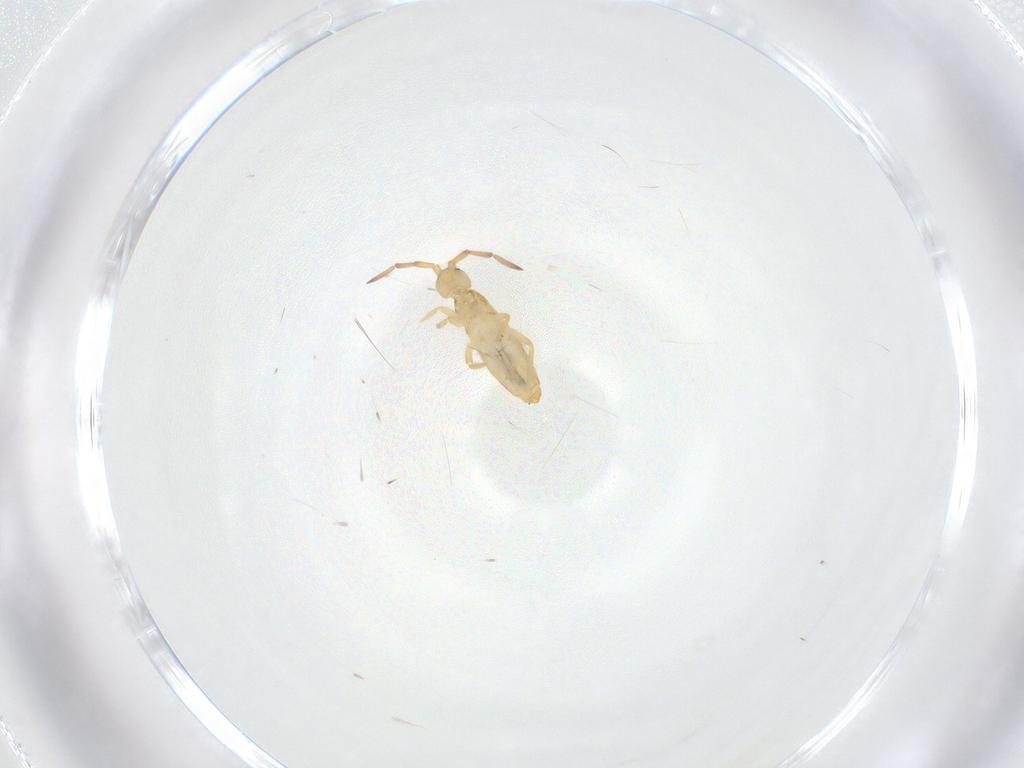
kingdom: Animalia
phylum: Arthropoda
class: Collembola
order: Entomobryomorpha
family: Entomobryidae
